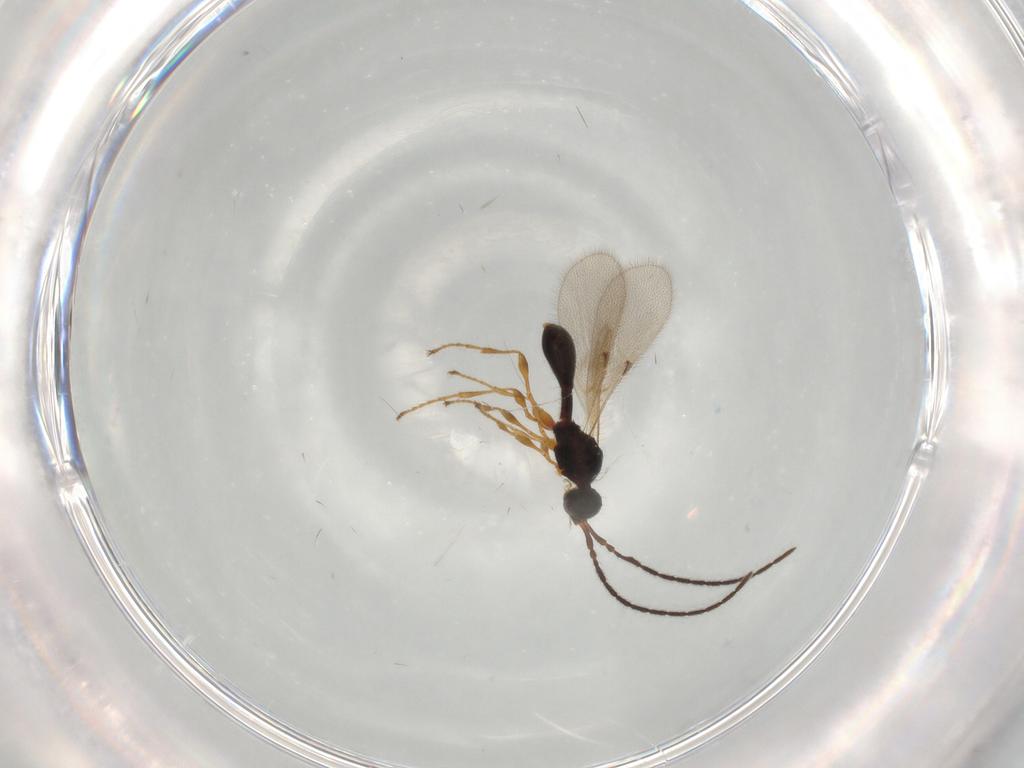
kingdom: Animalia
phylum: Arthropoda
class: Insecta
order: Hymenoptera
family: Diapriidae
